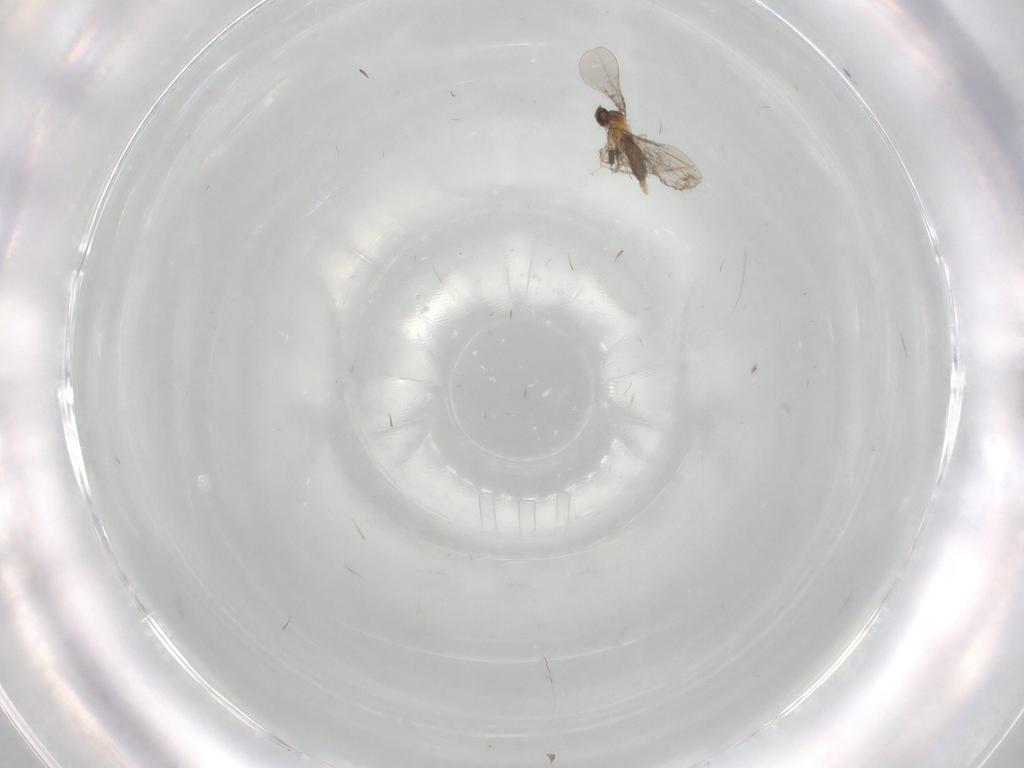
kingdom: Animalia
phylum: Arthropoda
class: Insecta
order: Diptera
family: Sciaridae
